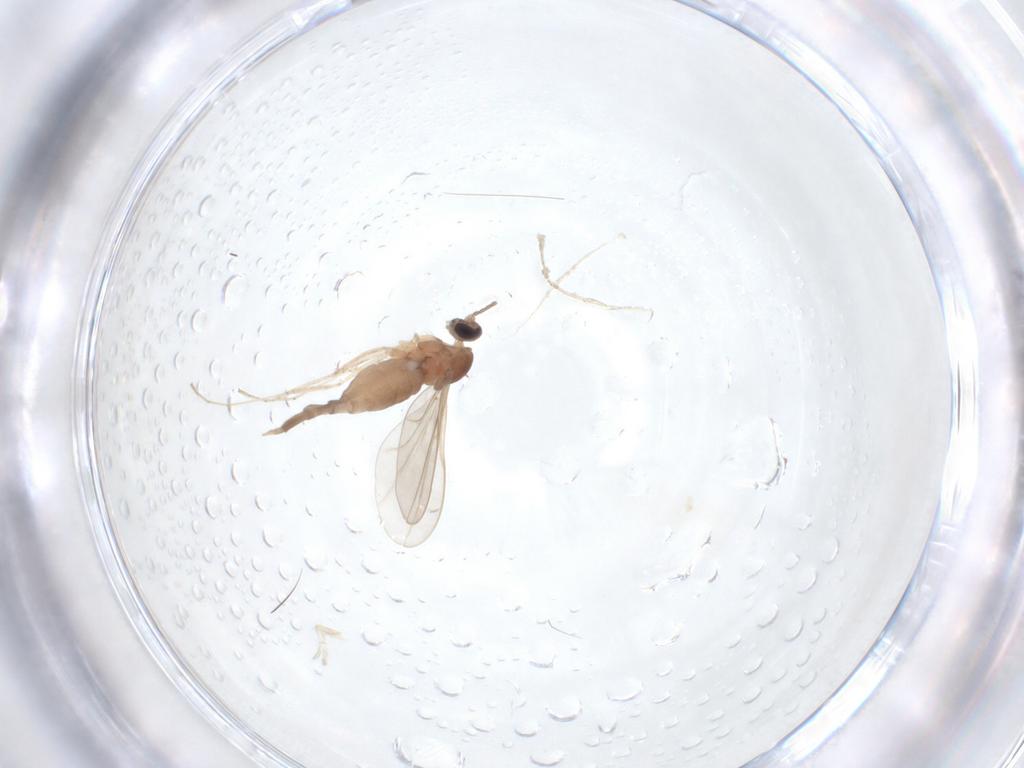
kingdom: Animalia
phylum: Arthropoda
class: Insecta
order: Diptera
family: Cecidomyiidae
